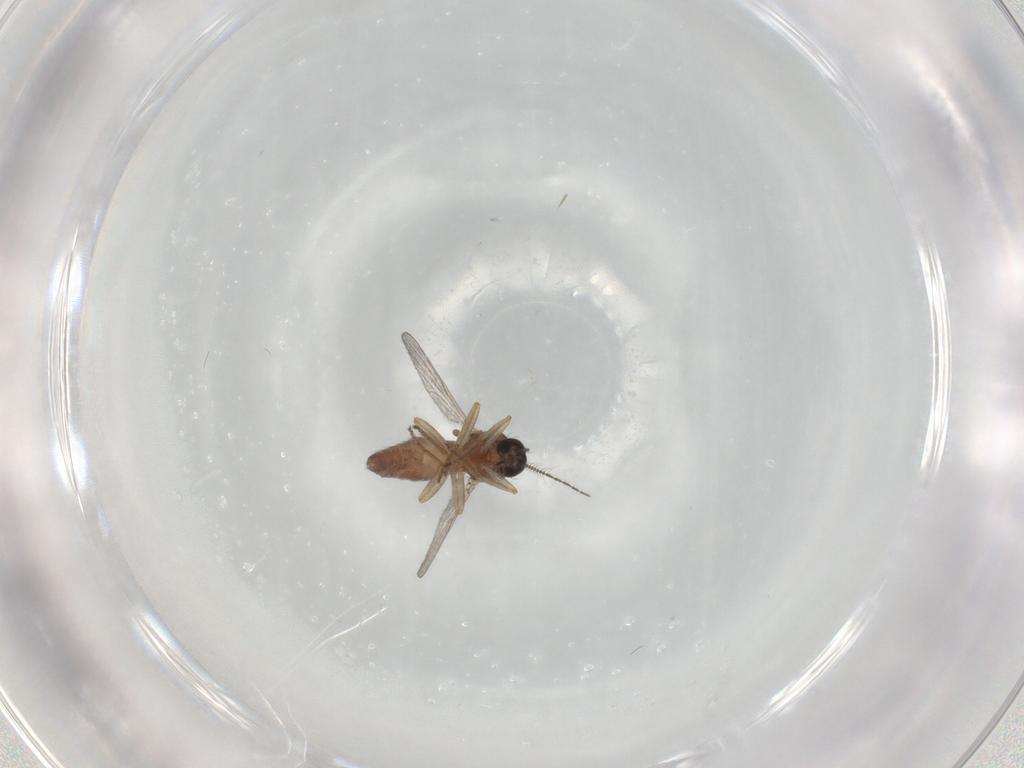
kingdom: Animalia
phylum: Arthropoda
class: Insecta
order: Diptera
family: Ceratopogonidae
